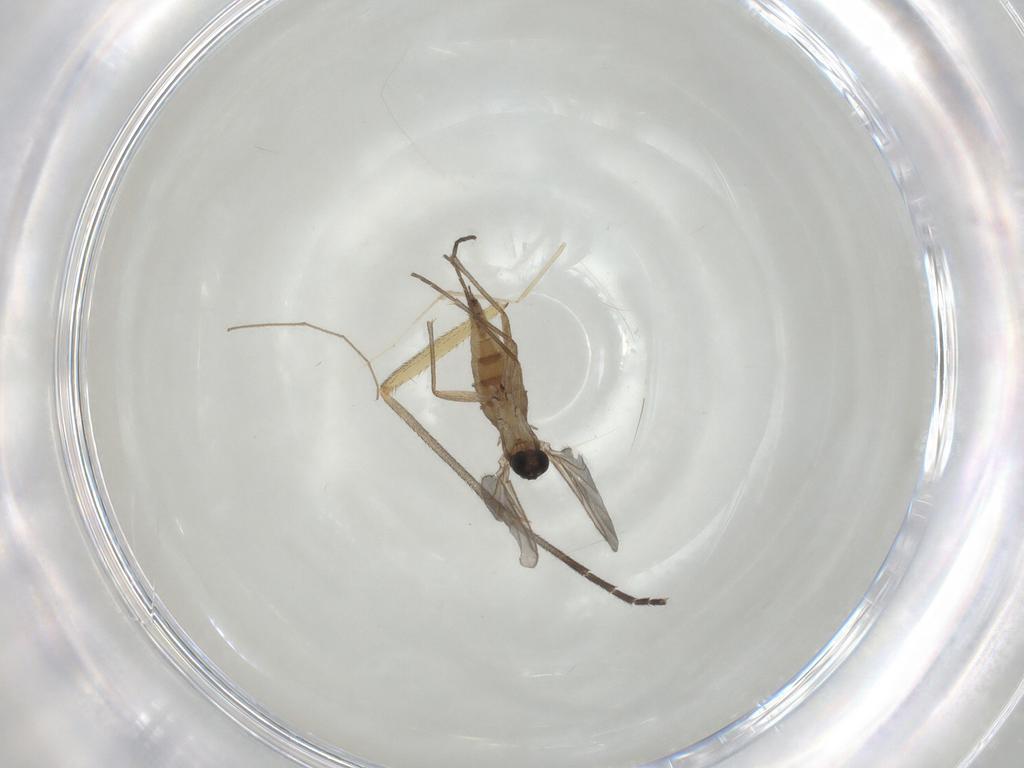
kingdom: Animalia
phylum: Arthropoda
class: Insecta
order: Diptera
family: Sciaridae
